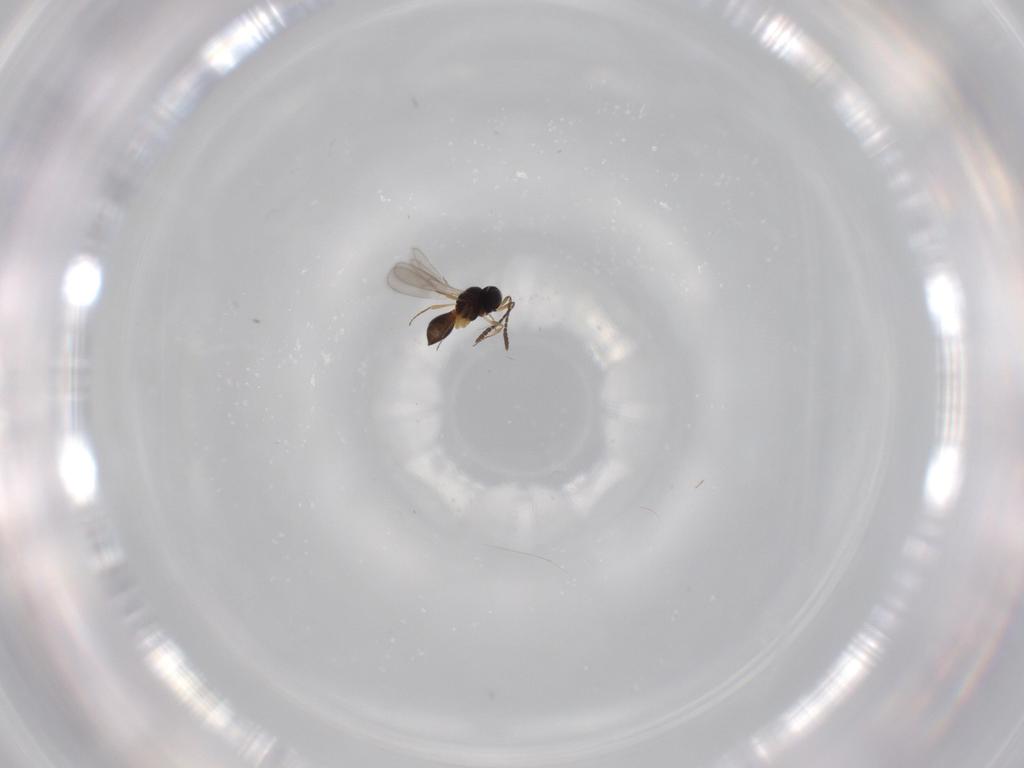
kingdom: Animalia
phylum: Arthropoda
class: Insecta
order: Hymenoptera
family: Scelionidae
